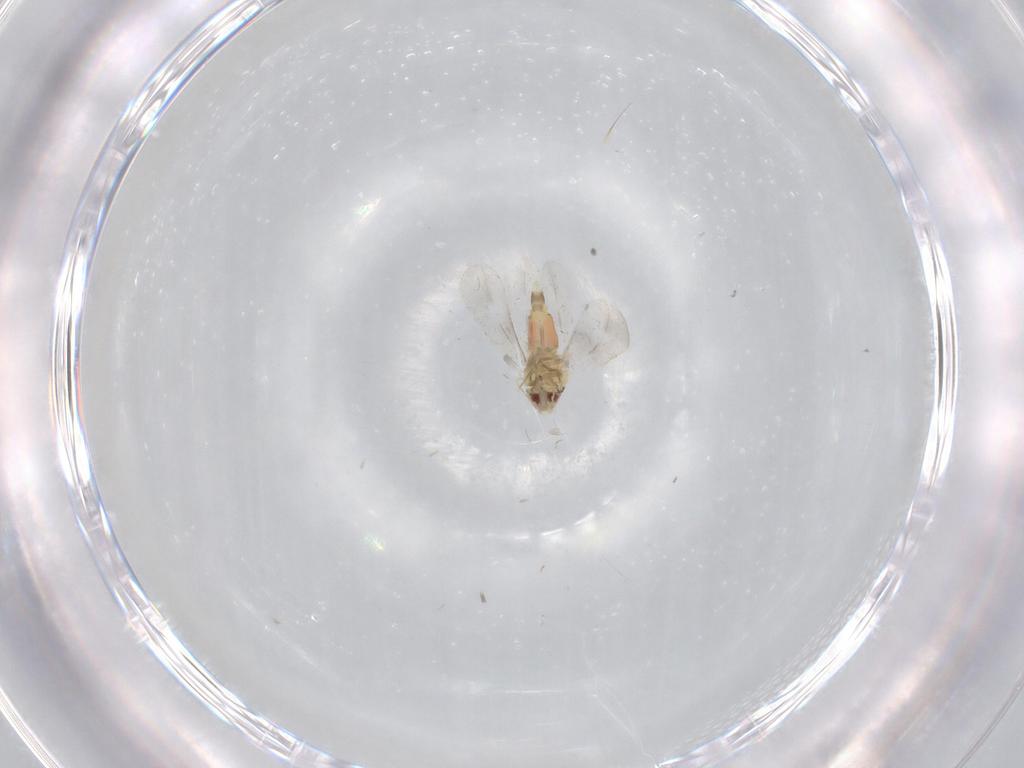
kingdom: Animalia
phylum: Arthropoda
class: Insecta
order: Hemiptera
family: Aleyrodidae
